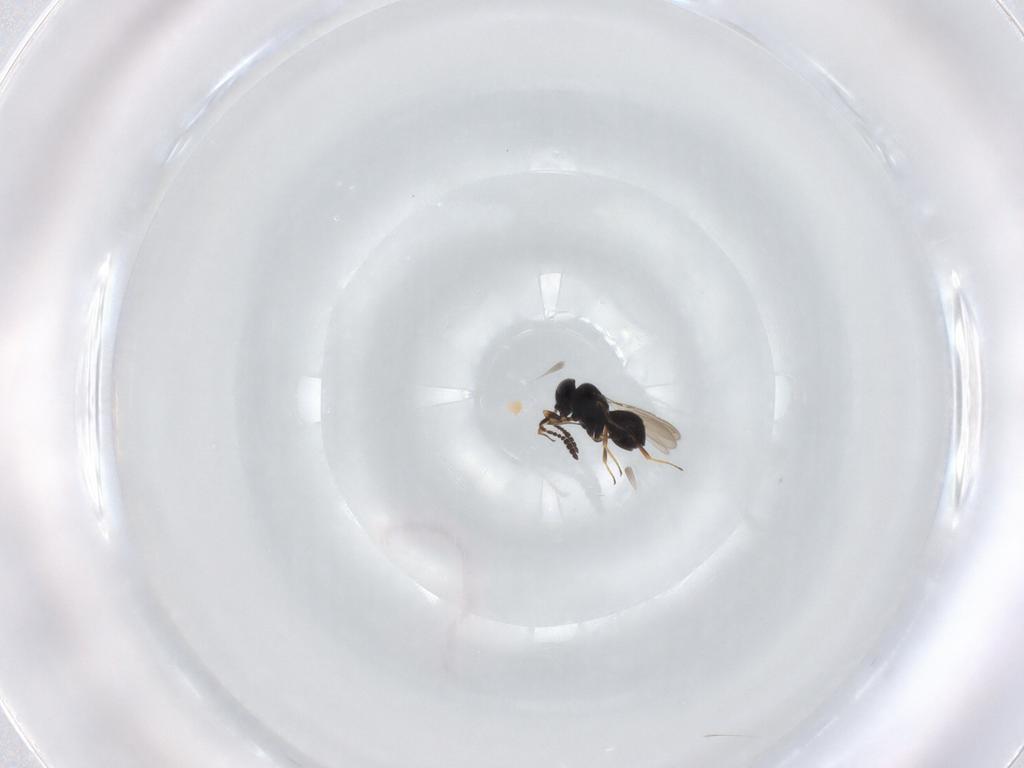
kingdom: Animalia
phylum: Arthropoda
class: Insecta
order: Hymenoptera
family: Scelionidae
